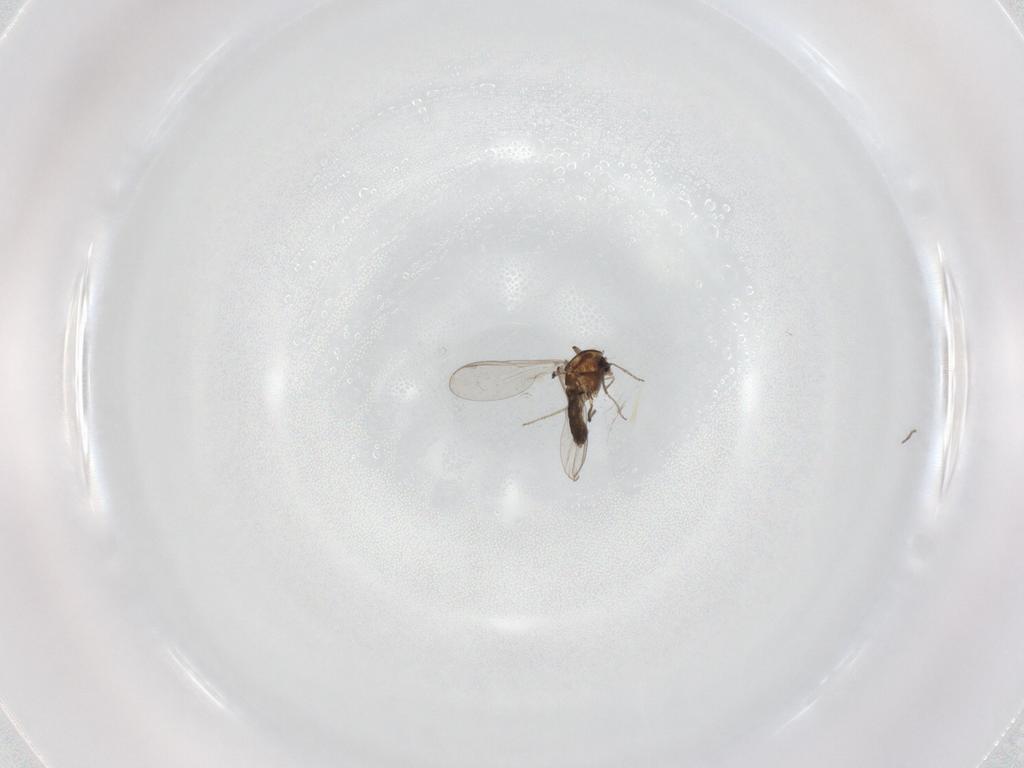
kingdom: Animalia
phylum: Arthropoda
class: Insecta
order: Diptera
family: Chironomidae
